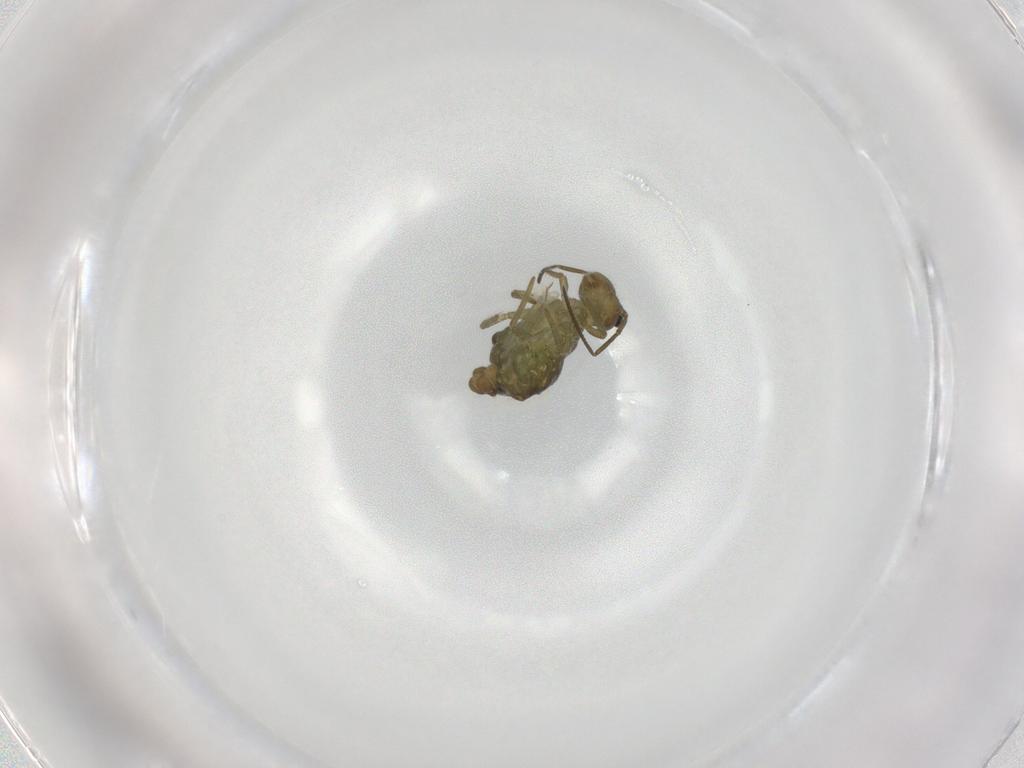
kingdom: Animalia
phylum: Arthropoda
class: Collembola
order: Symphypleona
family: Sminthuridae
